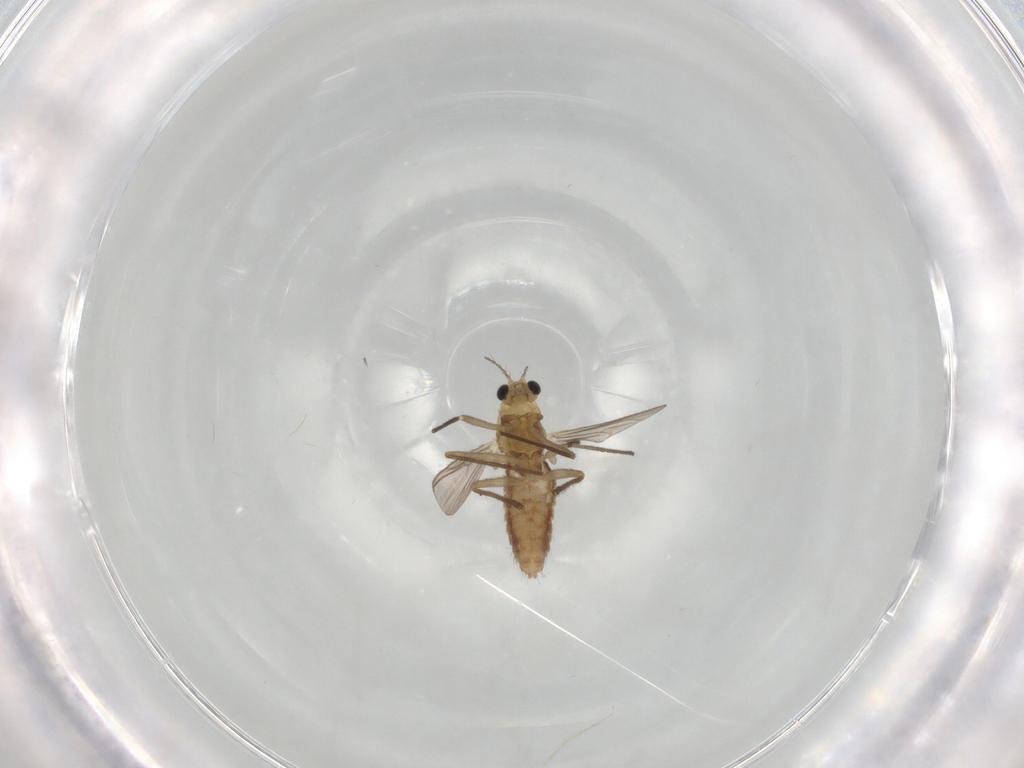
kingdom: Animalia
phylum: Arthropoda
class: Insecta
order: Diptera
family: Chironomidae
